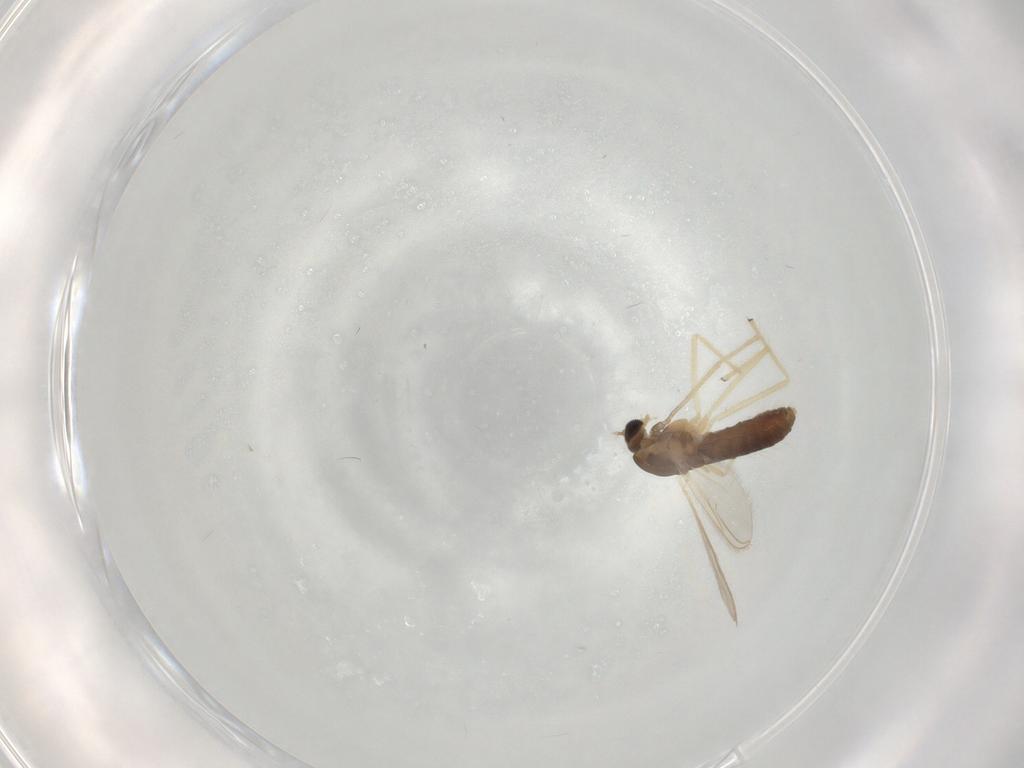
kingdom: Animalia
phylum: Arthropoda
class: Insecta
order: Diptera
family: Chironomidae
